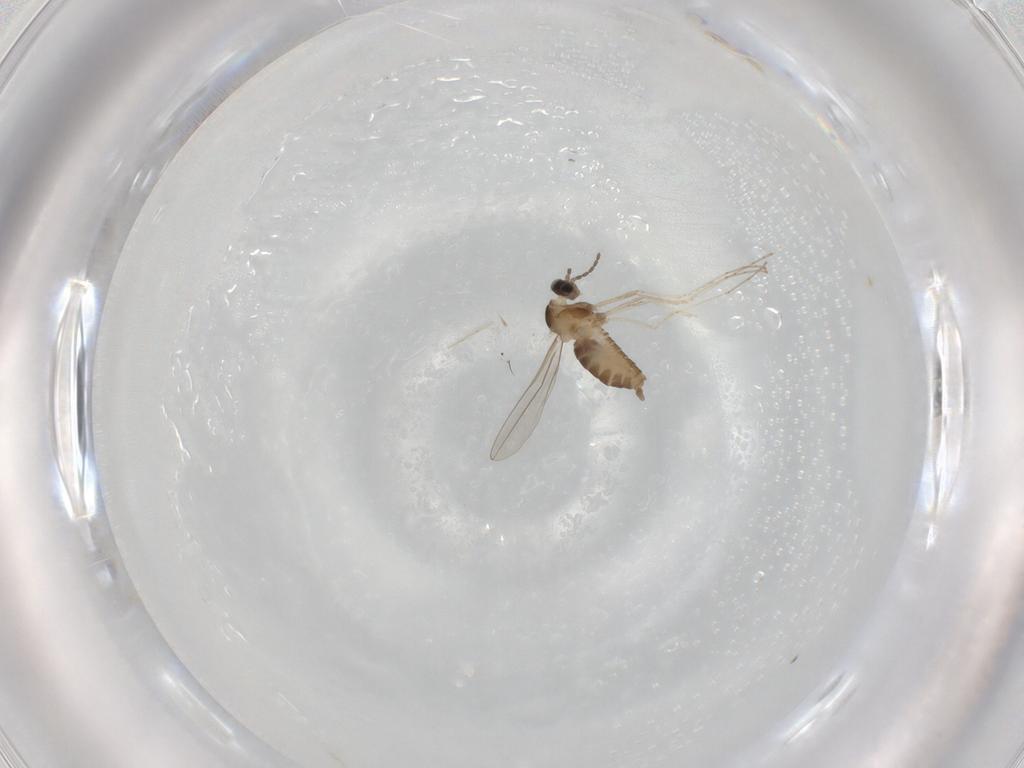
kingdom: Animalia
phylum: Arthropoda
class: Insecta
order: Diptera
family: Cecidomyiidae
